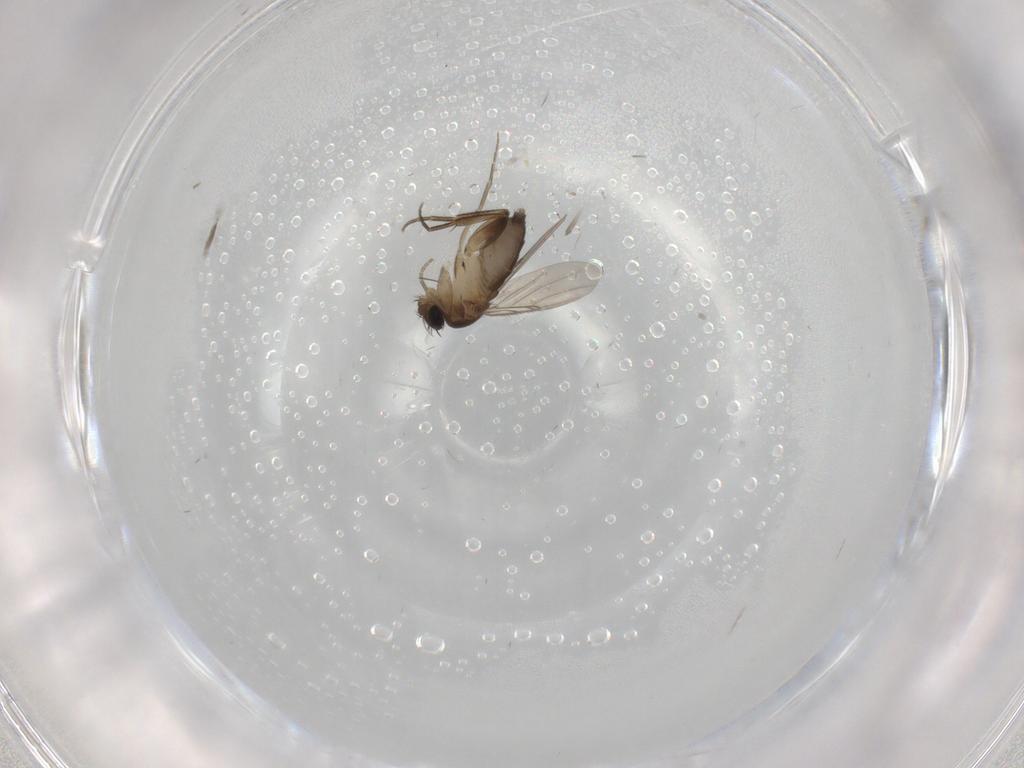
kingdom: Animalia
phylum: Arthropoda
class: Insecta
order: Diptera
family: Phoridae
